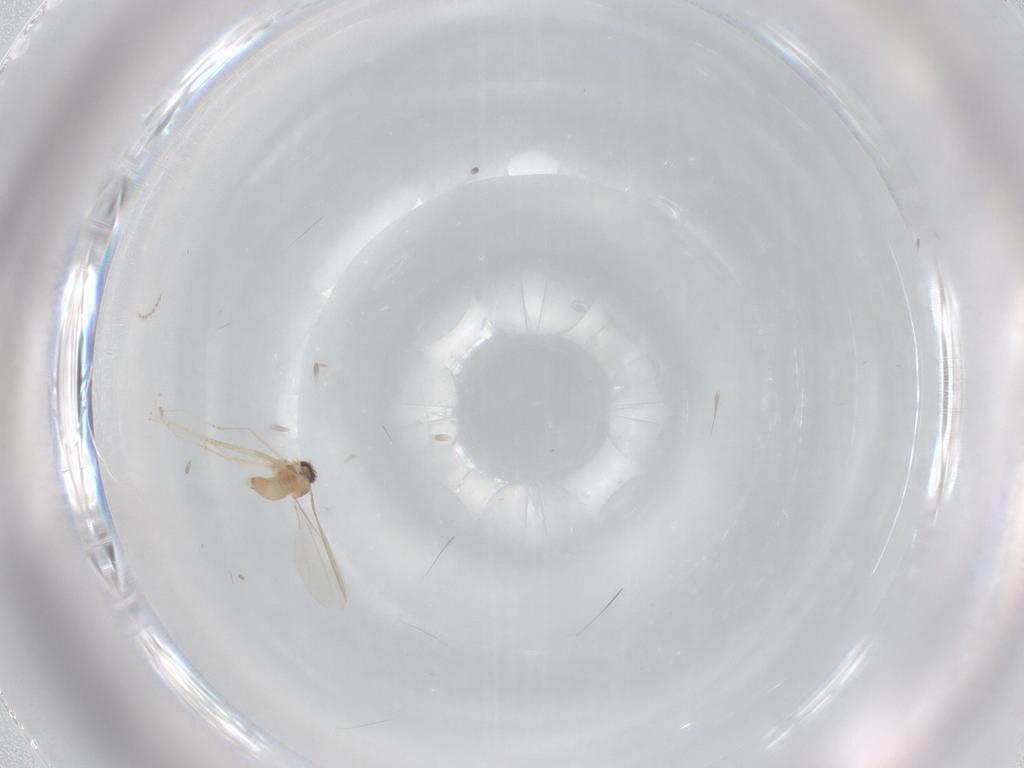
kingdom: Animalia
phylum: Arthropoda
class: Insecta
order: Diptera
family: Cecidomyiidae
